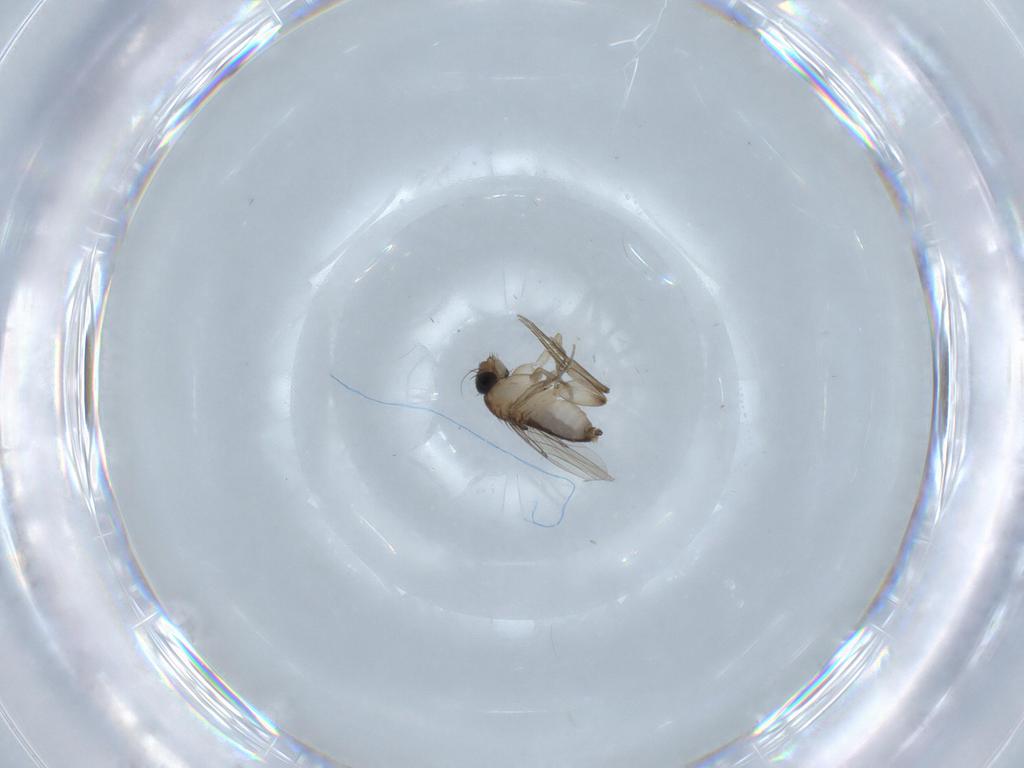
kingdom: Animalia
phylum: Arthropoda
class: Insecta
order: Diptera
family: Phoridae
